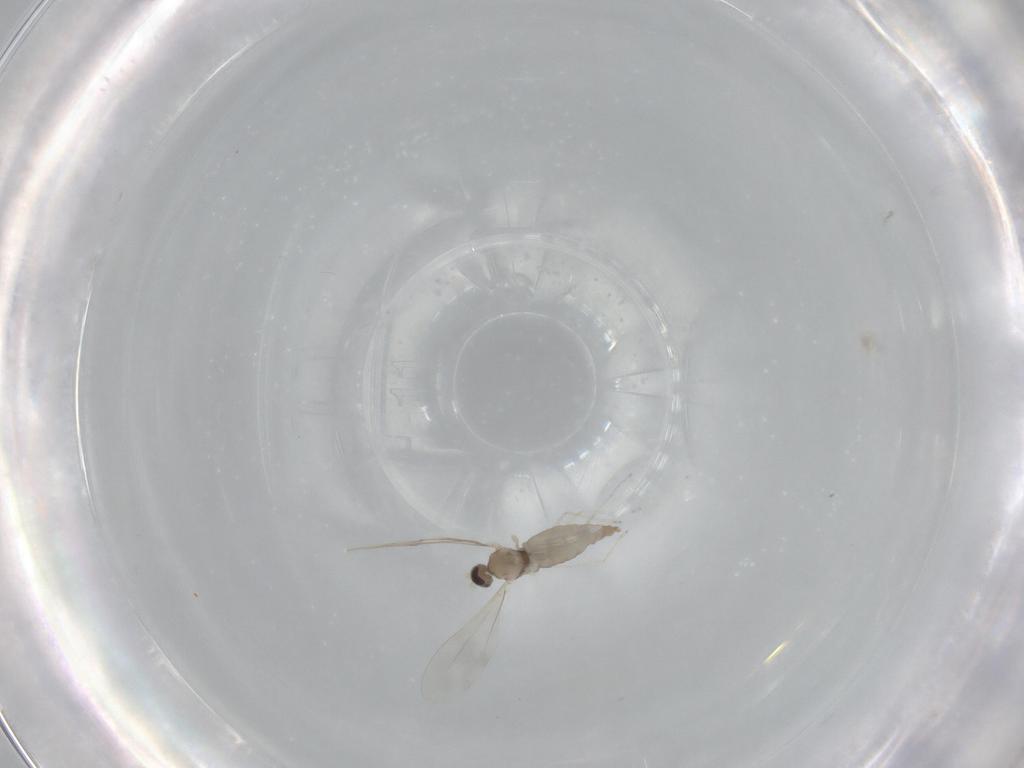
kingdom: Animalia
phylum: Arthropoda
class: Insecta
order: Diptera
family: Cecidomyiidae
